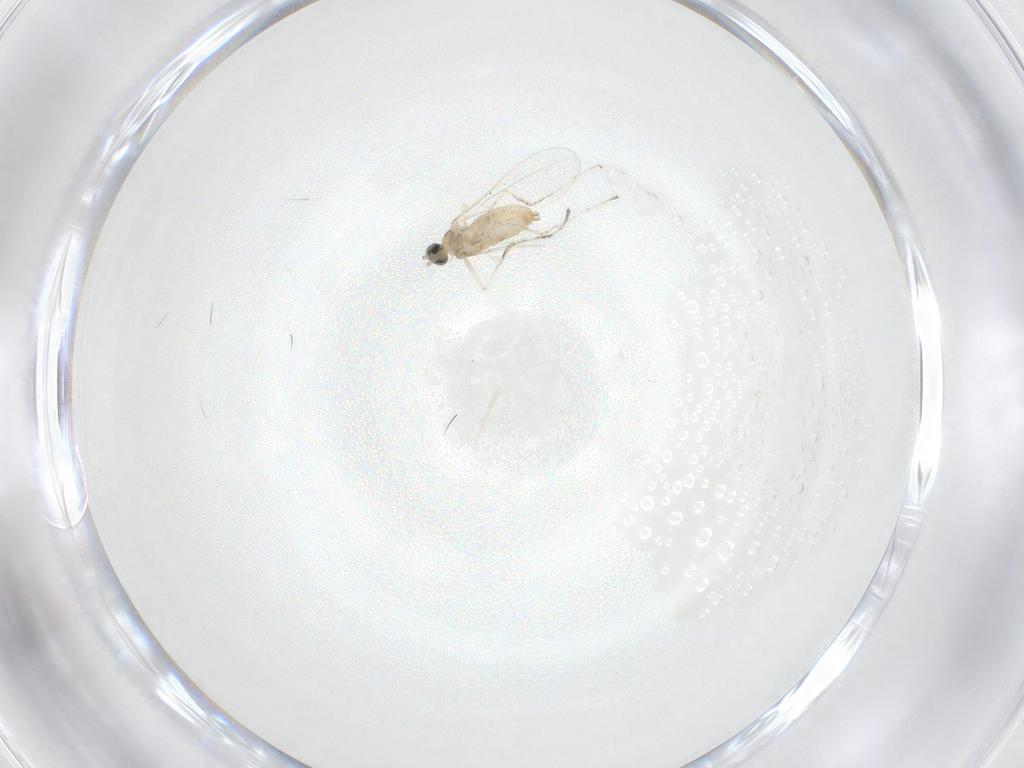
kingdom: Animalia
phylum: Arthropoda
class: Insecta
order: Diptera
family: Cecidomyiidae
